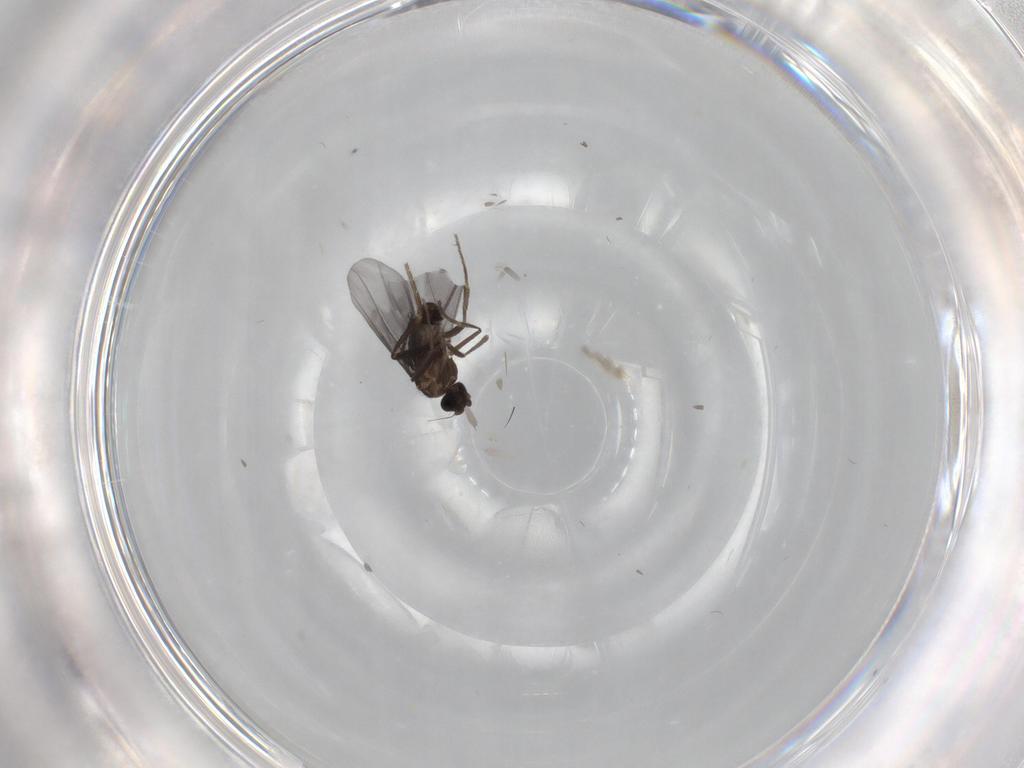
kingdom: Animalia
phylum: Arthropoda
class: Insecta
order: Diptera
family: Phoridae
